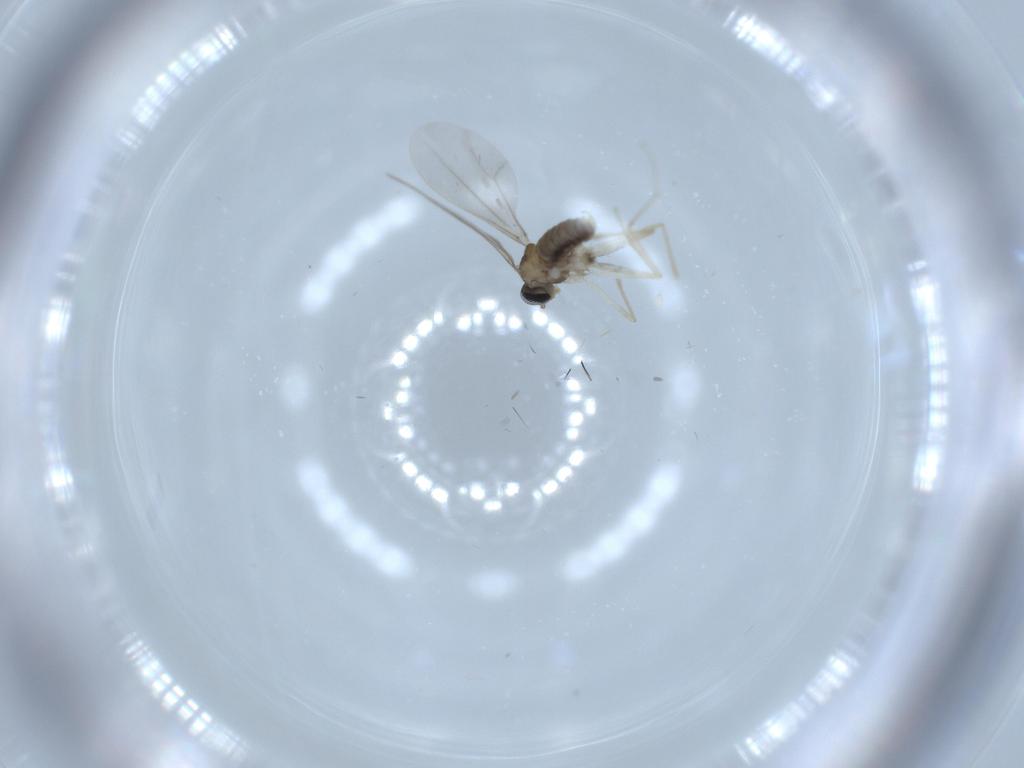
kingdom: Animalia
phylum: Arthropoda
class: Insecta
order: Diptera
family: Cecidomyiidae
